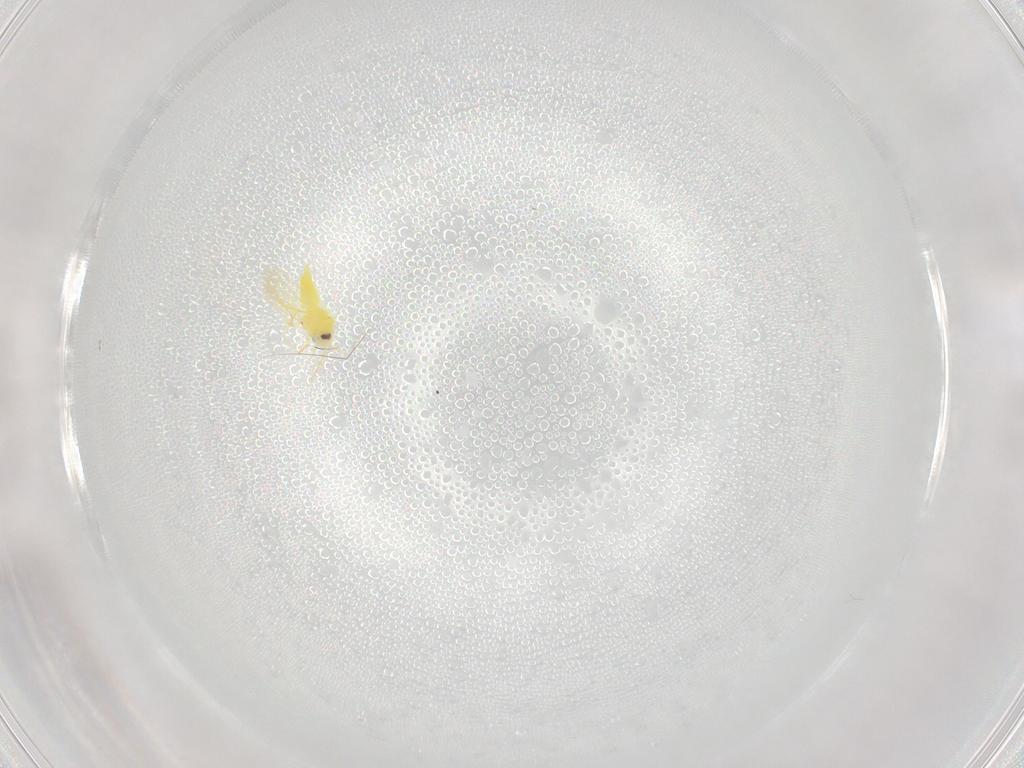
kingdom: Animalia
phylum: Arthropoda
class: Insecta
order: Hemiptera
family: Aleyrodidae
